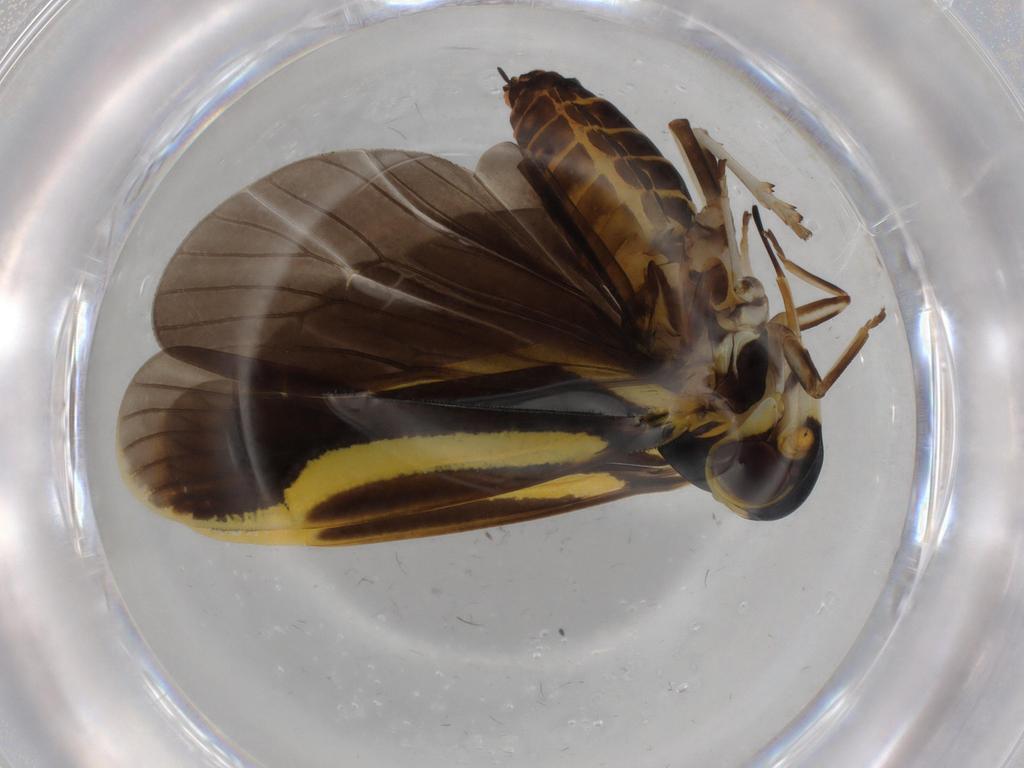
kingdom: Animalia
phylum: Arthropoda
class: Insecta
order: Hemiptera
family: Achilidae
